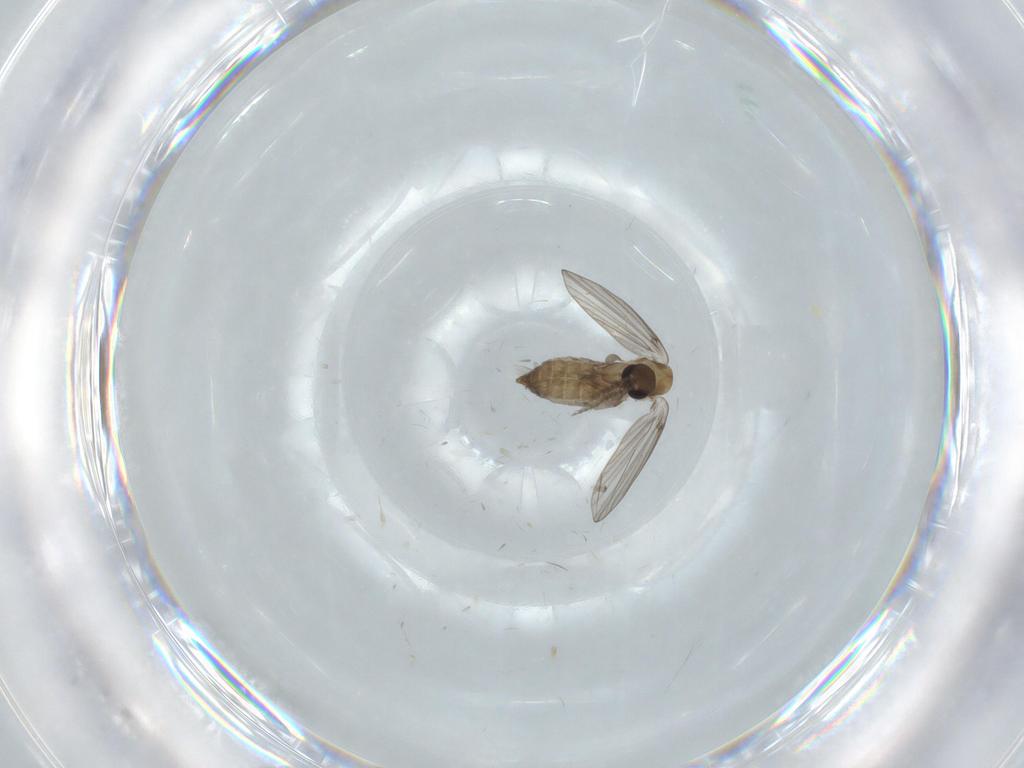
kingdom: Animalia
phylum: Arthropoda
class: Insecta
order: Diptera
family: Psychodidae
